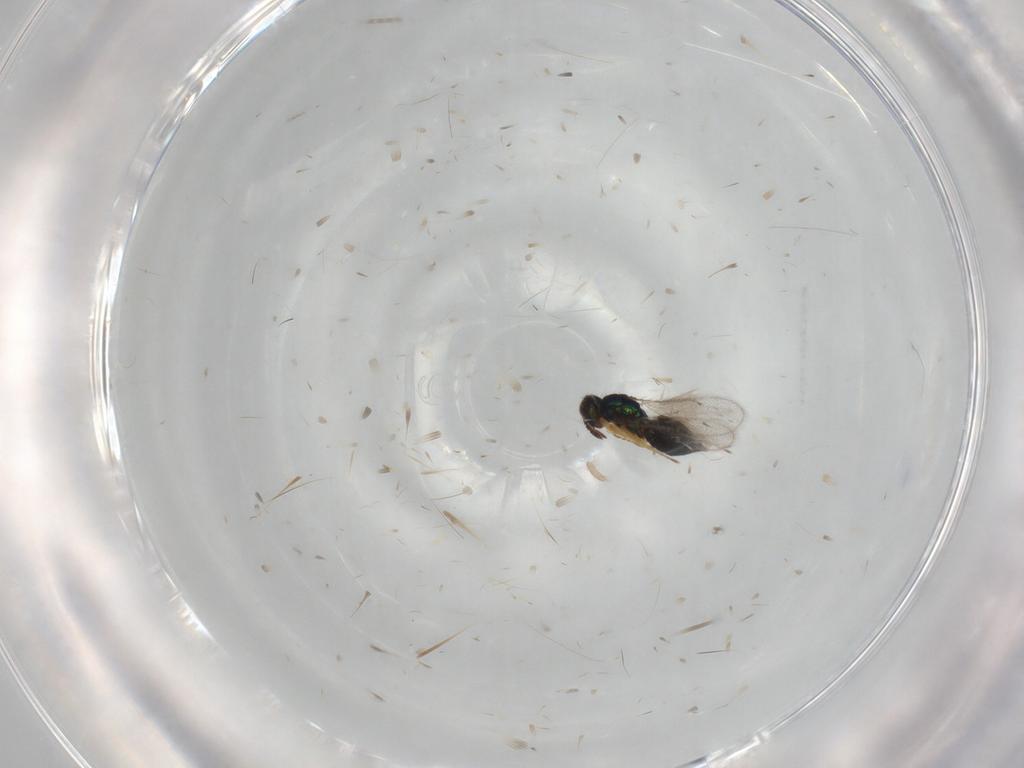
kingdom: Animalia
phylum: Arthropoda
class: Insecta
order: Hymenoptera
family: Eulophidae
